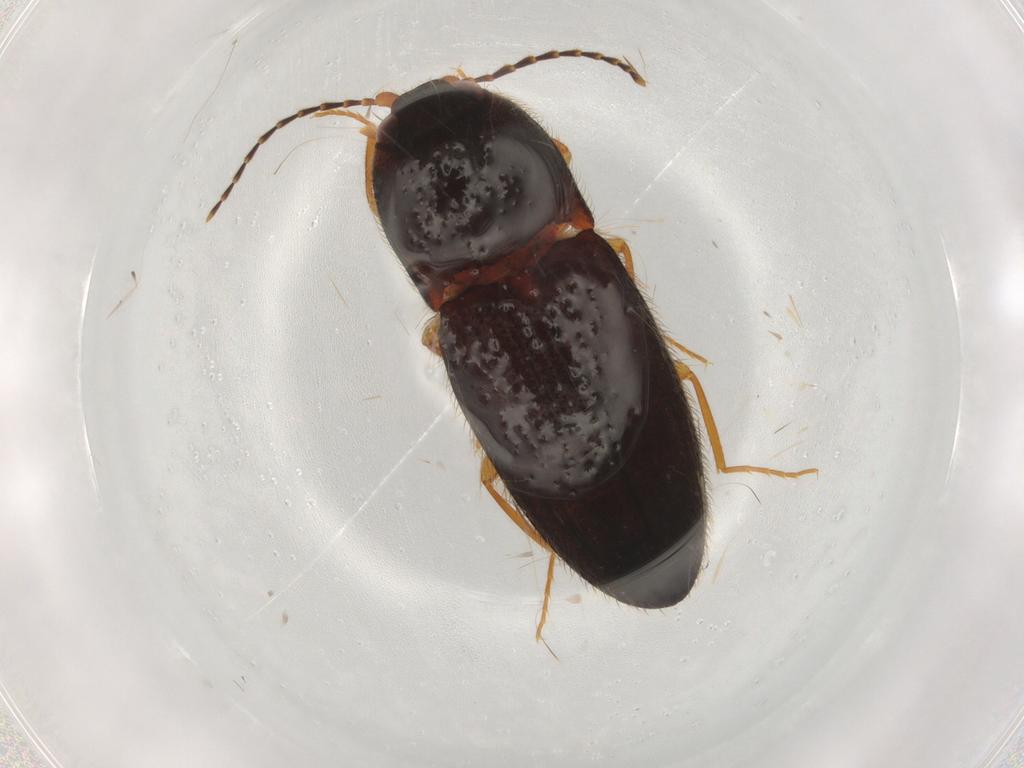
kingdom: Animalia
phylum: Arthropoda
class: Insecta
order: Coleoptera
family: Elateridae
